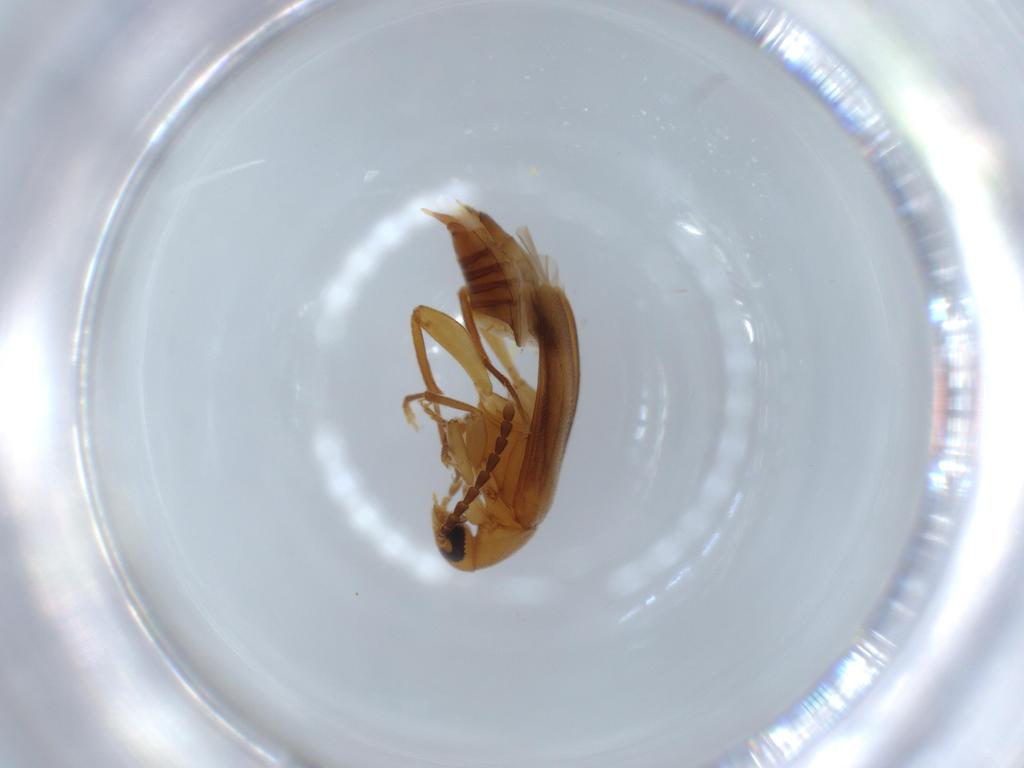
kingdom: Animalia
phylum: Arthropoda
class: Insecta
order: Coleoptera
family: Scraptiidae
